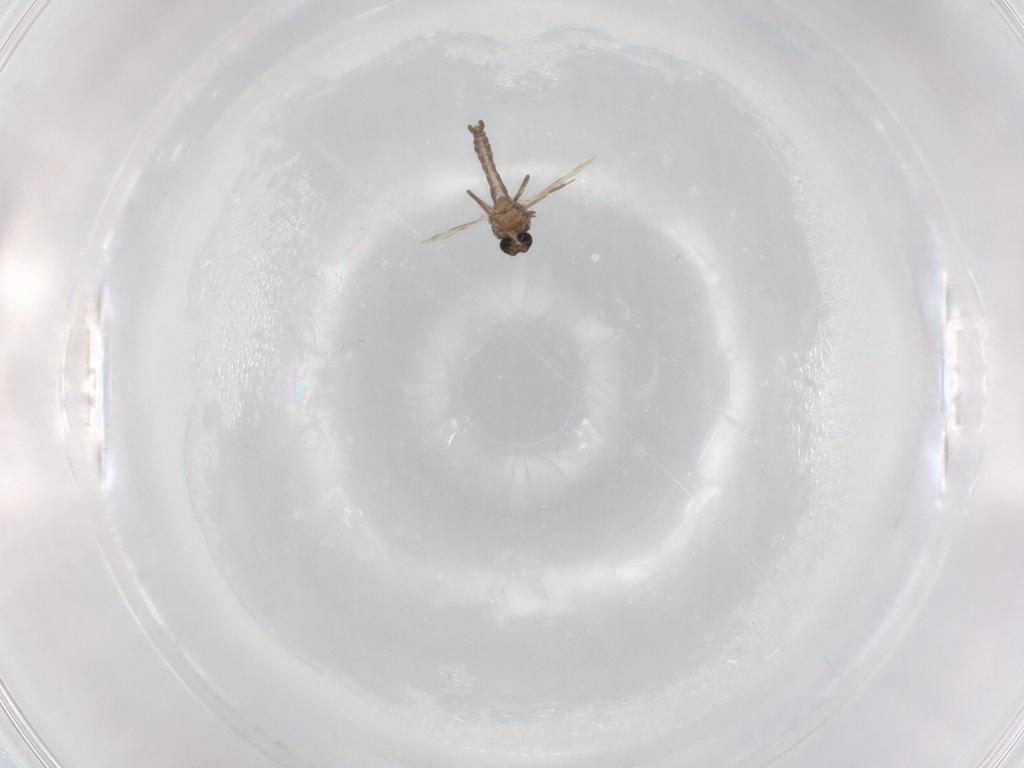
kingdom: Animalia
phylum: Arthropoda
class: Insecta
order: Diptera
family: Ceratopogonidae
